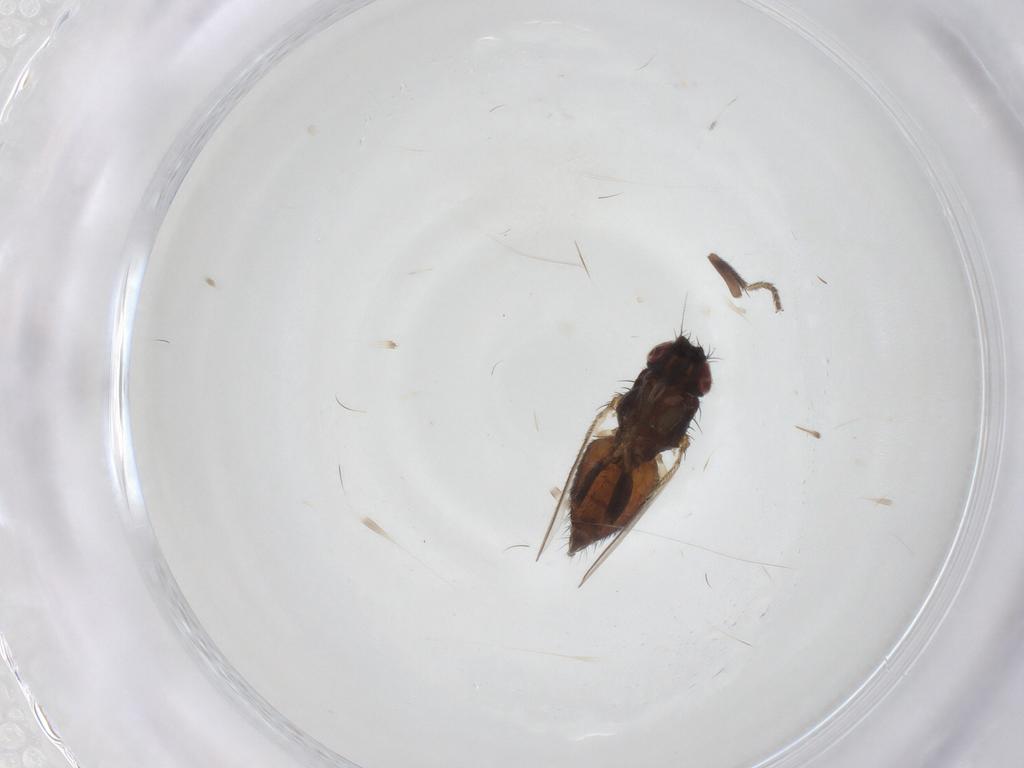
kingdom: Animalia
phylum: Arthropoda
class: Insecta
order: Diptera
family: Milichiidae
